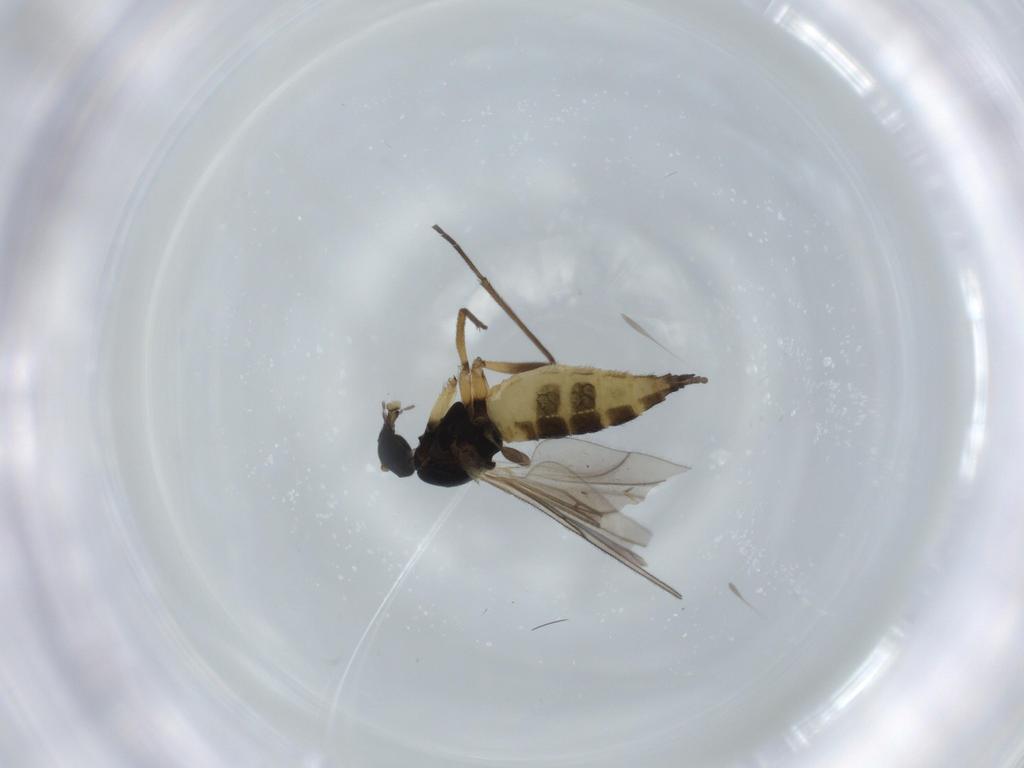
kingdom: Animalia
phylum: Arthropoda
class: Insecta
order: Diptera
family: Sciaridae
